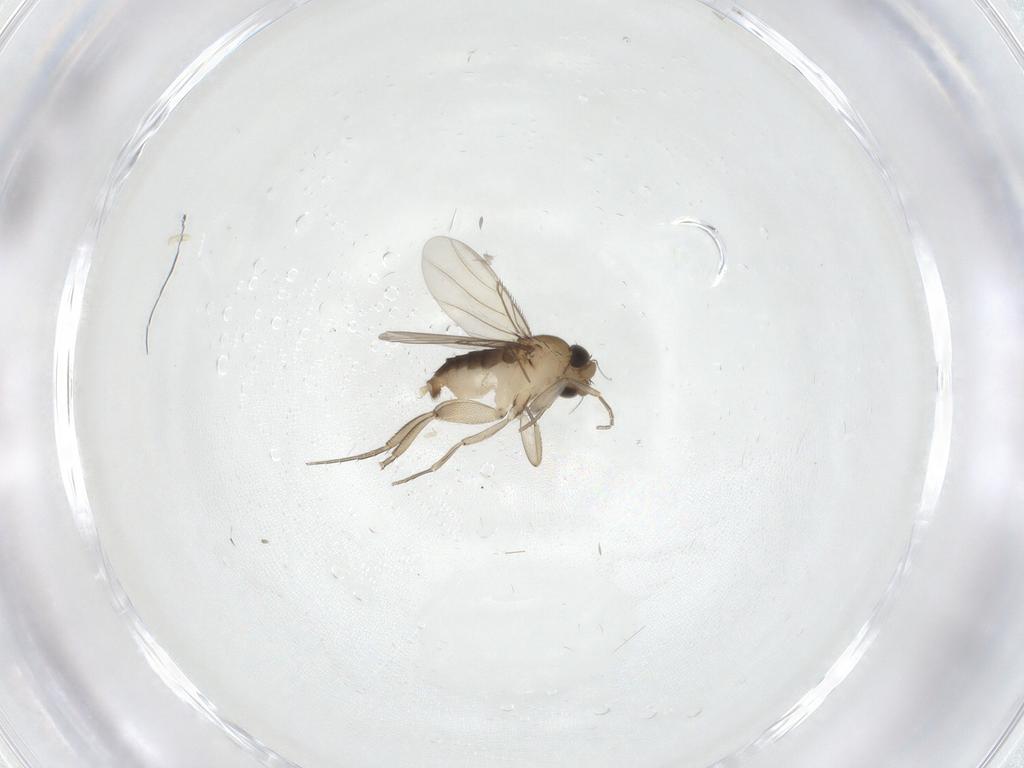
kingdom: Animalia
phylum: Arthropoda
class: Insecta
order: Diptera
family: Phoridae
